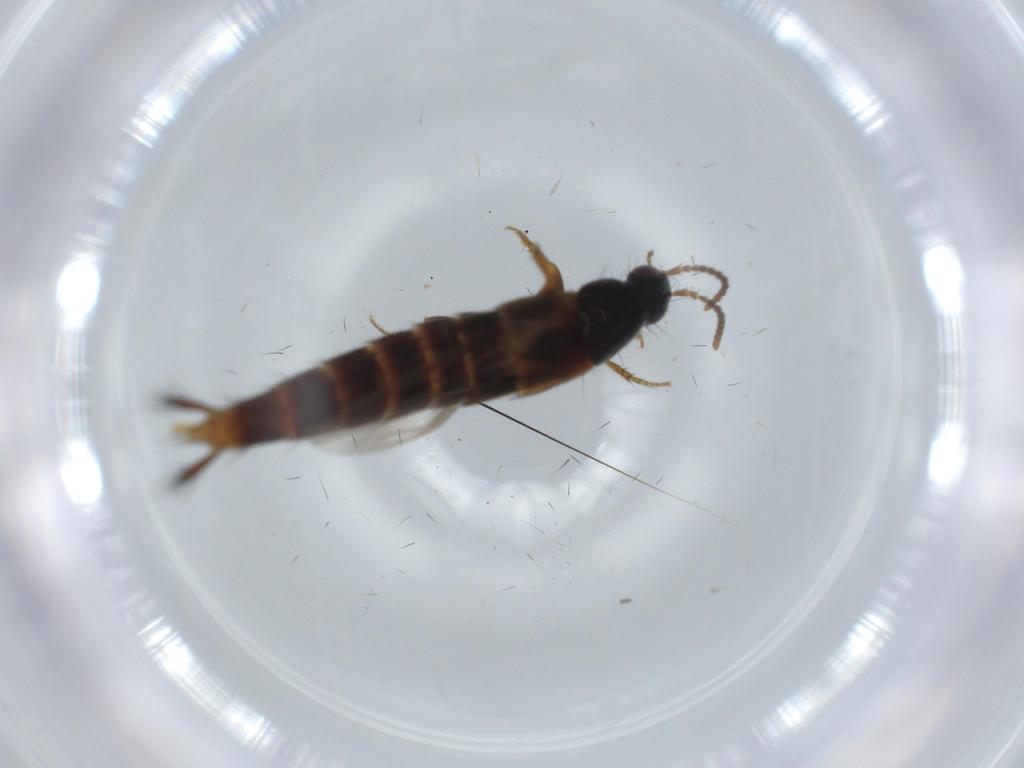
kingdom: Animalia
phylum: Arthropoda
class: Insecta
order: Coleoptera
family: Staphylinidae
